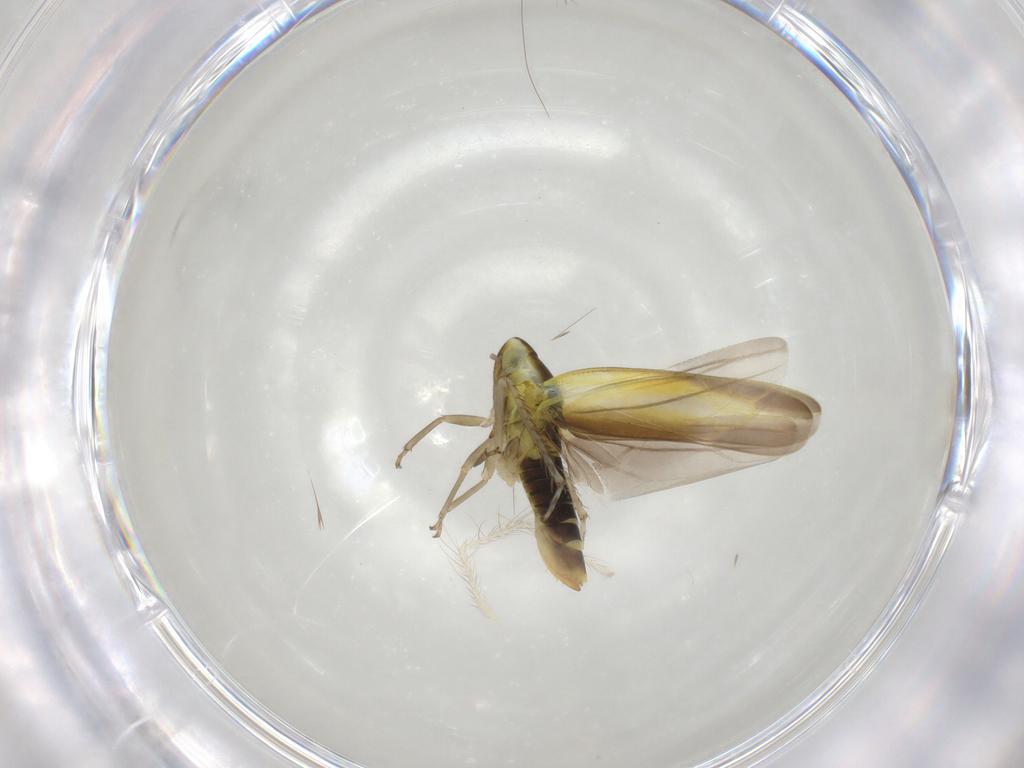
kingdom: Animalia
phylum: Arthropoda
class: Insecta
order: Hemiptera
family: Cicadellidae
